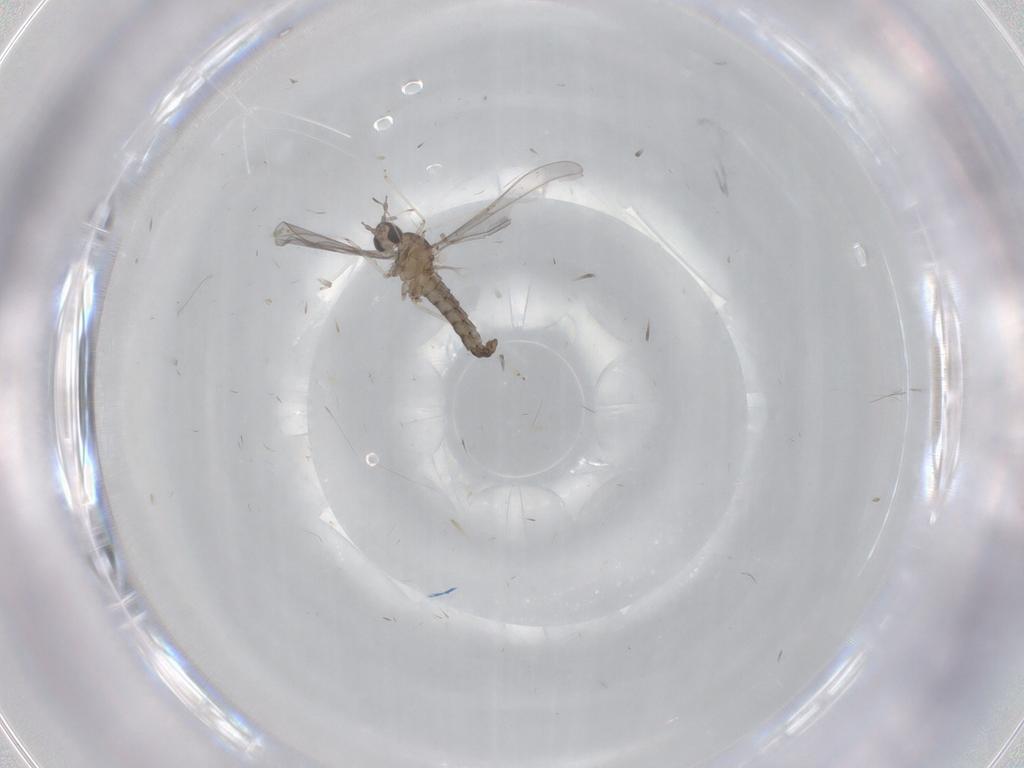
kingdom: Animalia
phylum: Arthropoda
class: Insecta
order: Diptera
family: Cecidomyiidae
